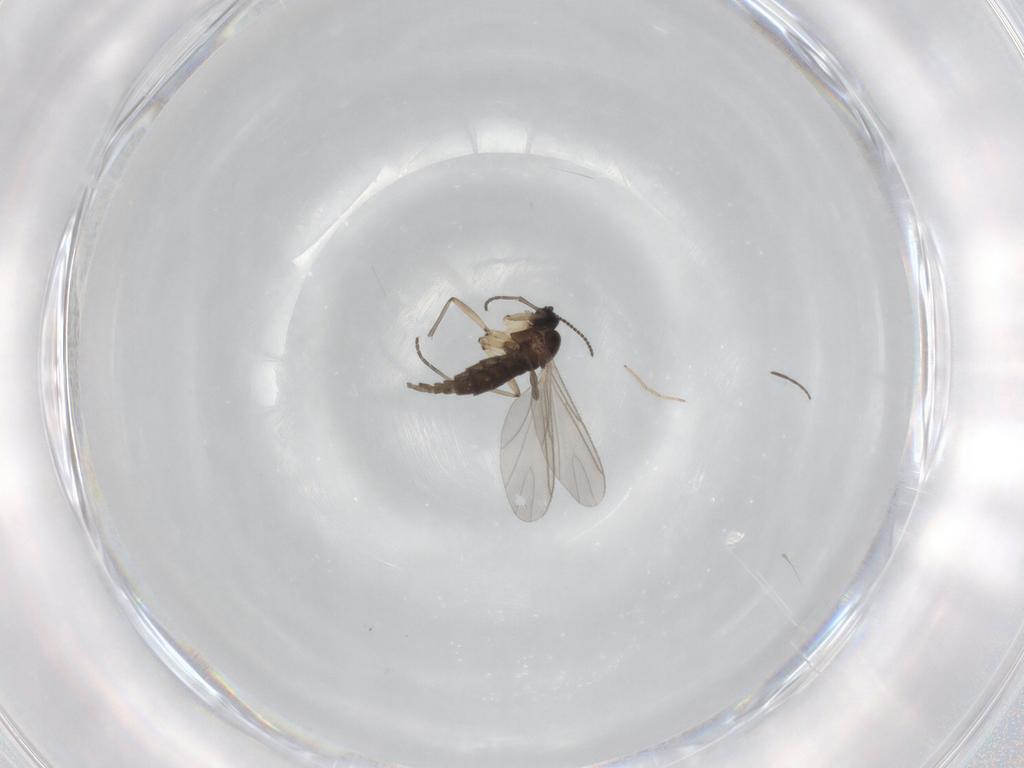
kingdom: Animalia
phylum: Arthropoda
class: Insecta
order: Diptera
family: Sciaridae
